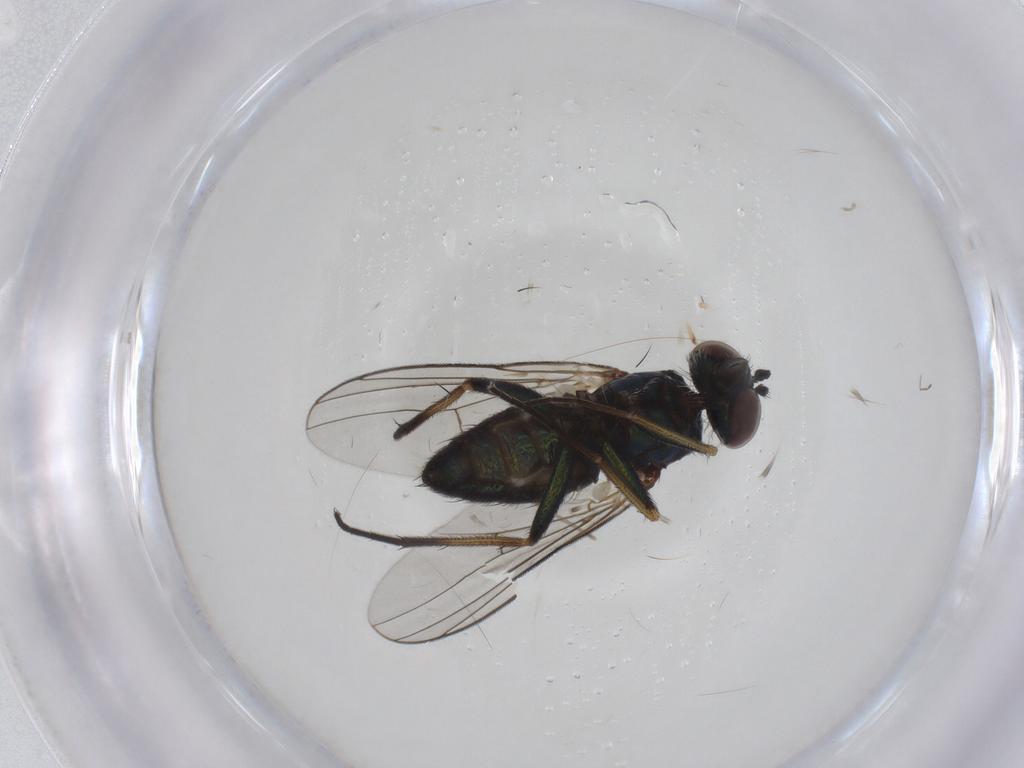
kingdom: Animalia
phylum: Arthropoda
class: Insecta
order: Diptera
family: Dolichopodidae
